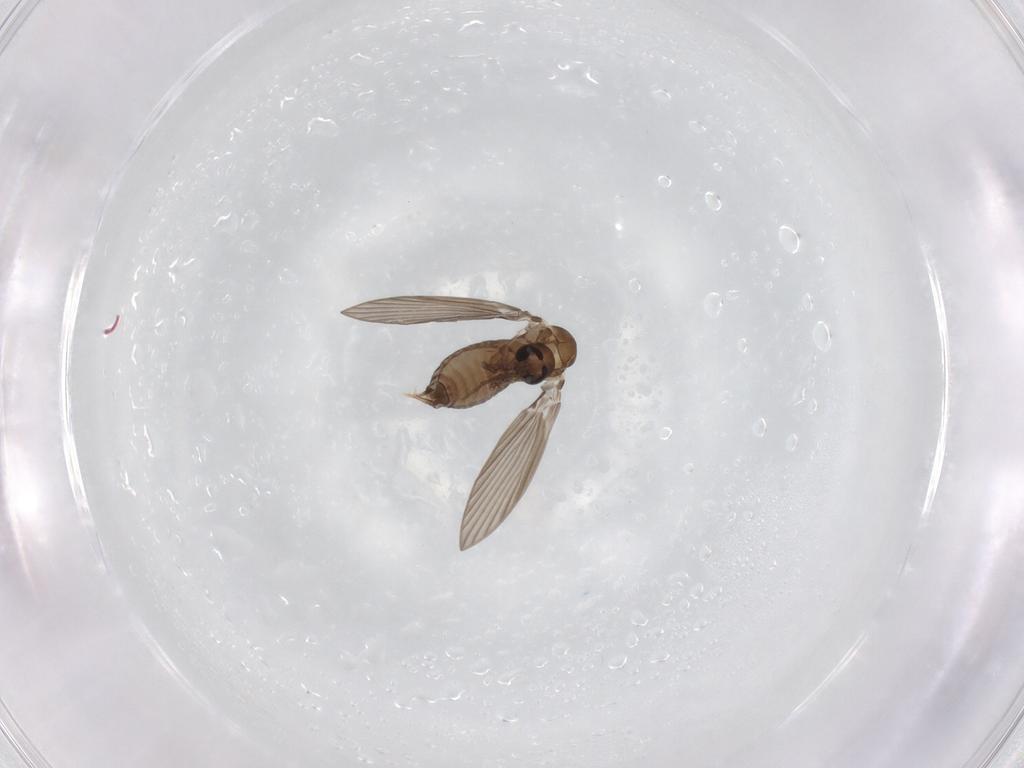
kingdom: Animalia
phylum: Arthropoda
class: Insecta
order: Diptera
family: Psychodidae
